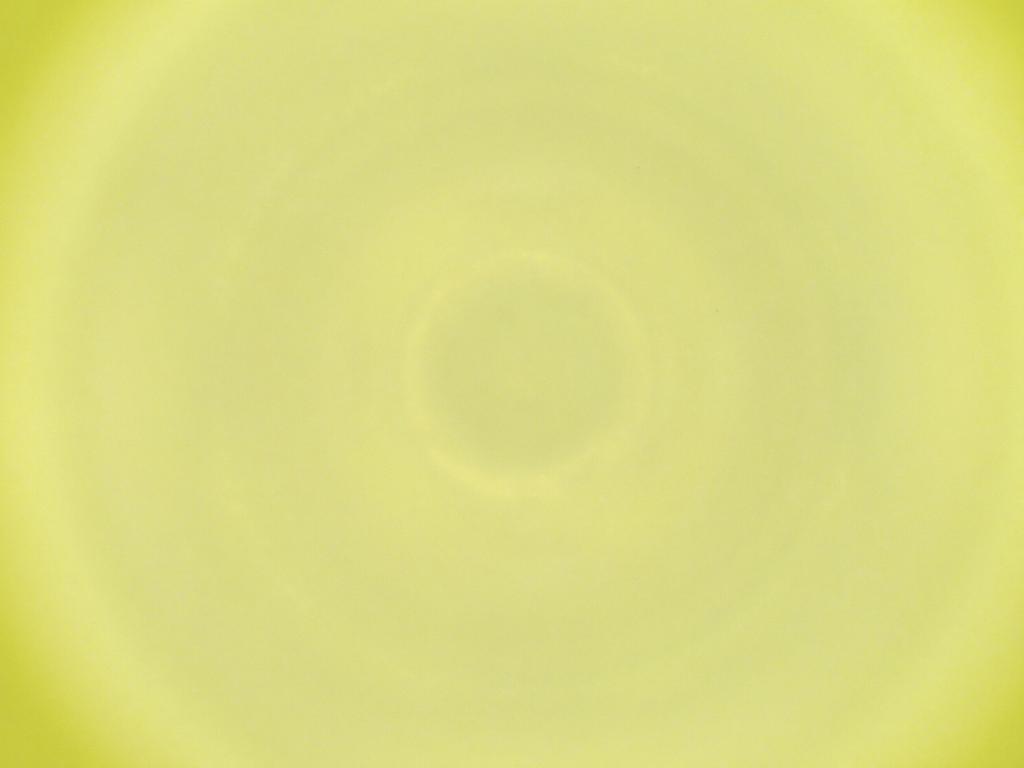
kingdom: Animalia
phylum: Arthropoda
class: Insecta
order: Diptera
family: Cecidomyiidae
